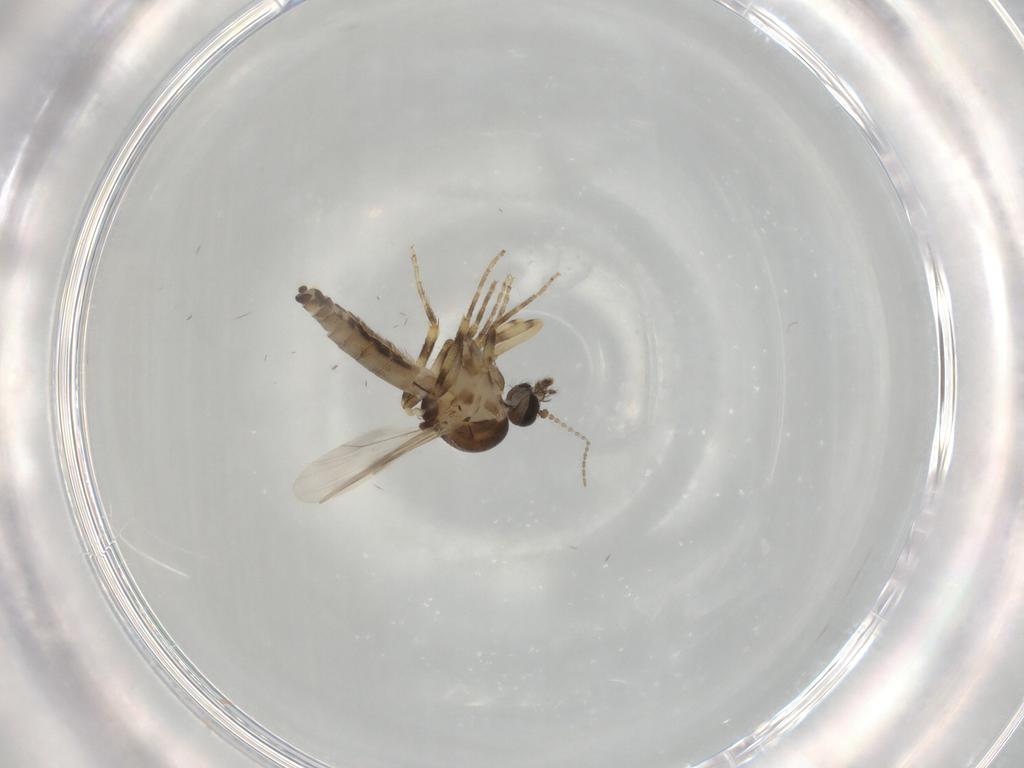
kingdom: Animalia
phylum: Arthropoda
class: Insecta
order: Diptera
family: Ceratopogonidae
